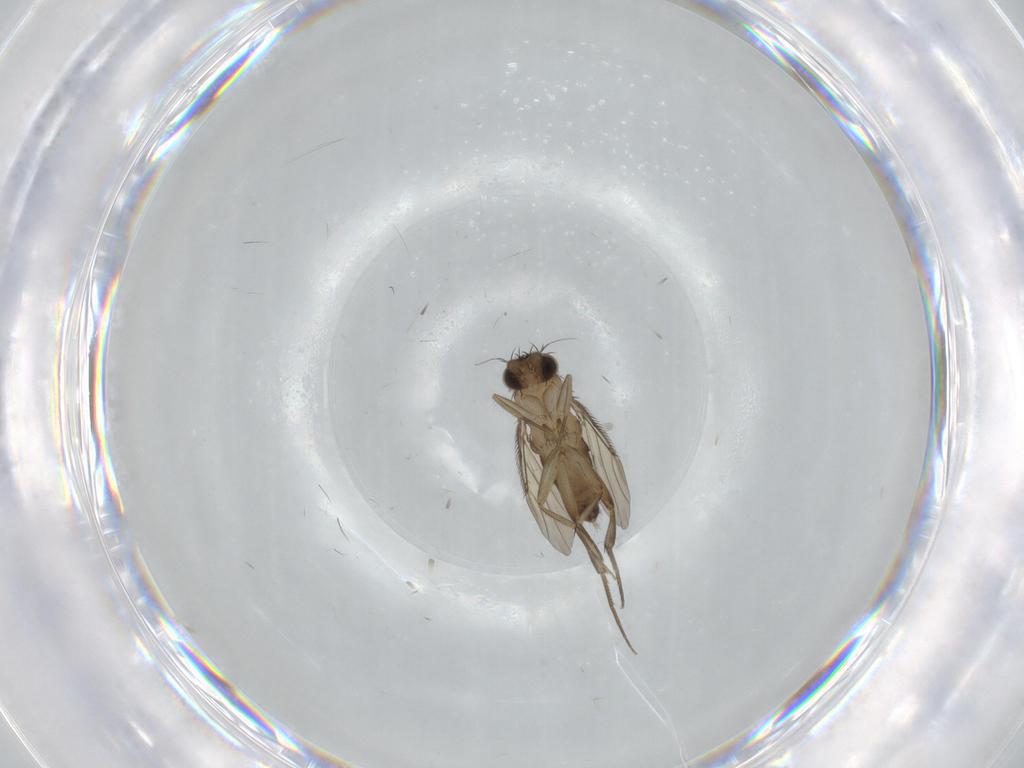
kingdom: Animalia
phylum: Arthropoda
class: Insecta
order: Diptera
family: Phoridae
